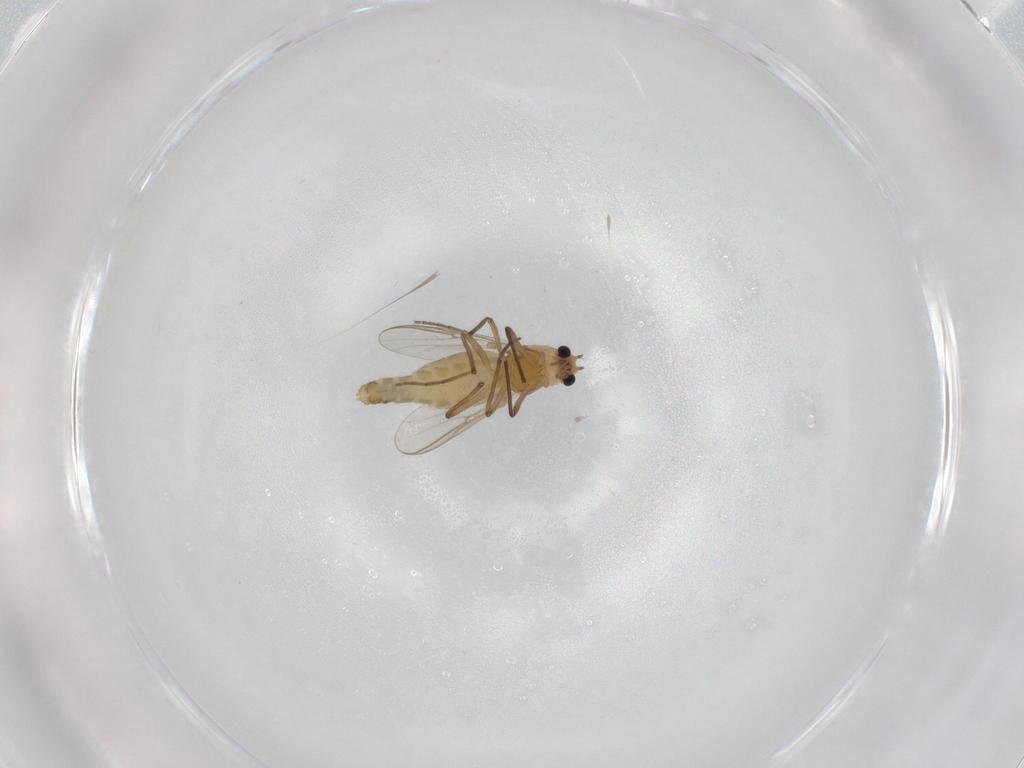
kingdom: Animalia
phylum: Arthropoda
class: Insecta
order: Diptera
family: Chironomidae
